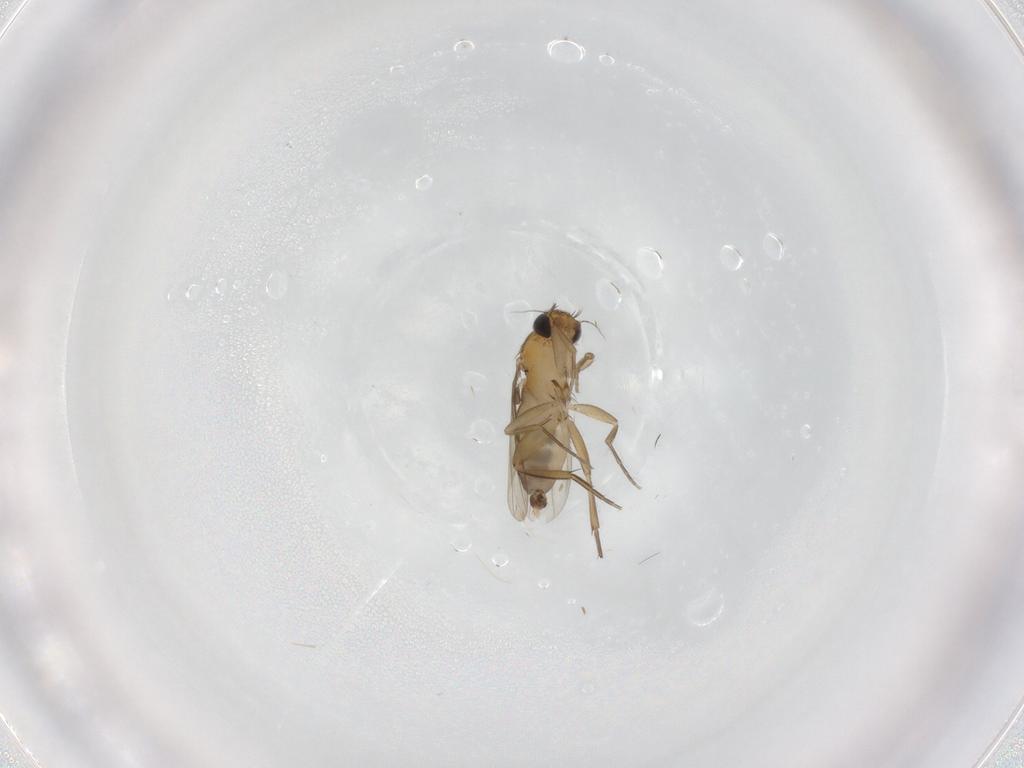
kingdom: Animalia
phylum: Arthropoda
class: Insecta
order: Diptera
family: Phoridae
